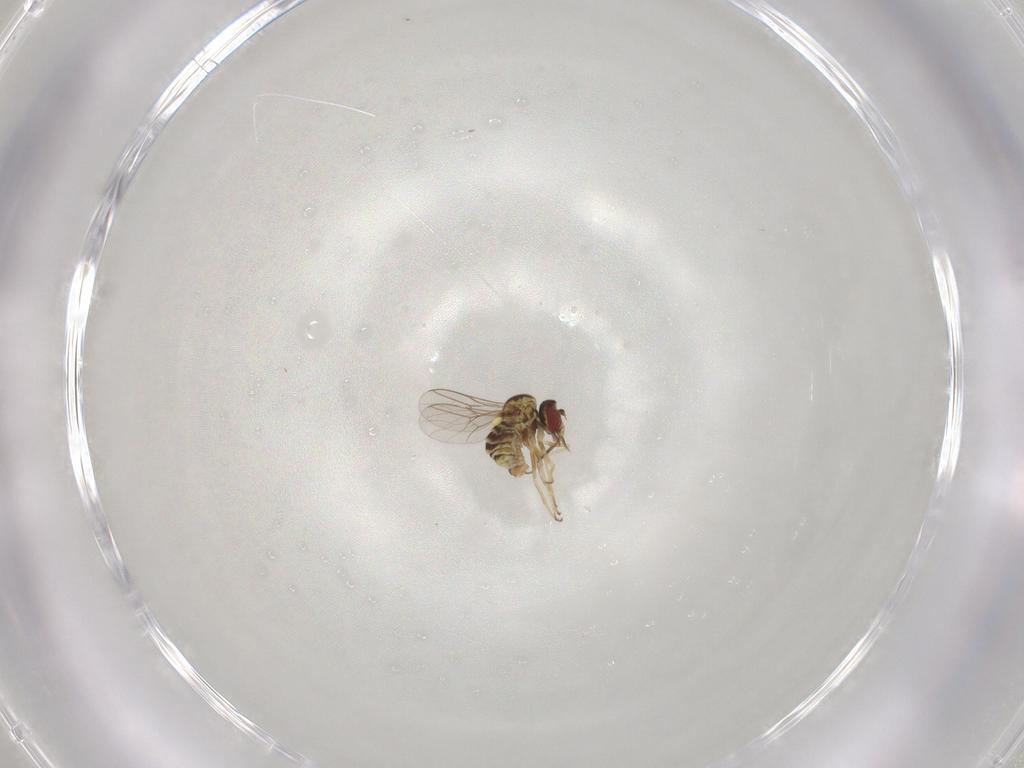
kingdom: Animalia
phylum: Arthropoda
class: Insecta
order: Diptera
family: Mythicomyiidae
